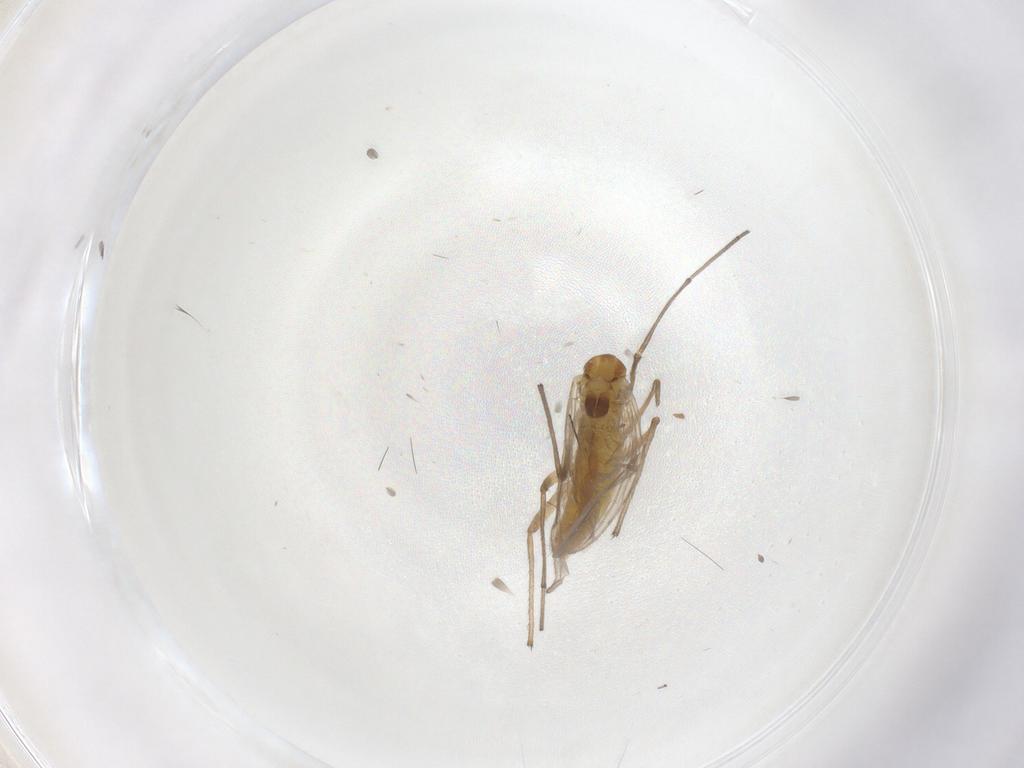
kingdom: Animalia
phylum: Arthropoda
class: Insecta
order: Diptera
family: Chironomidae
